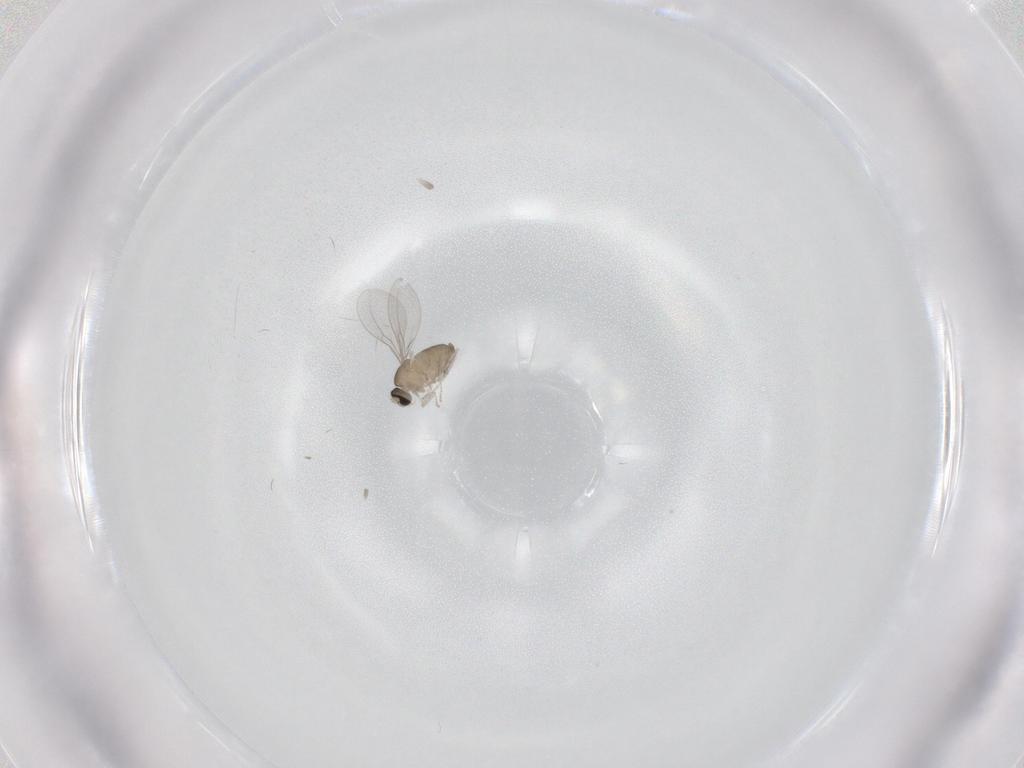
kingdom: Animalia
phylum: Arthropoda
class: Insecta
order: Diptera
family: Cecidomyiidae
